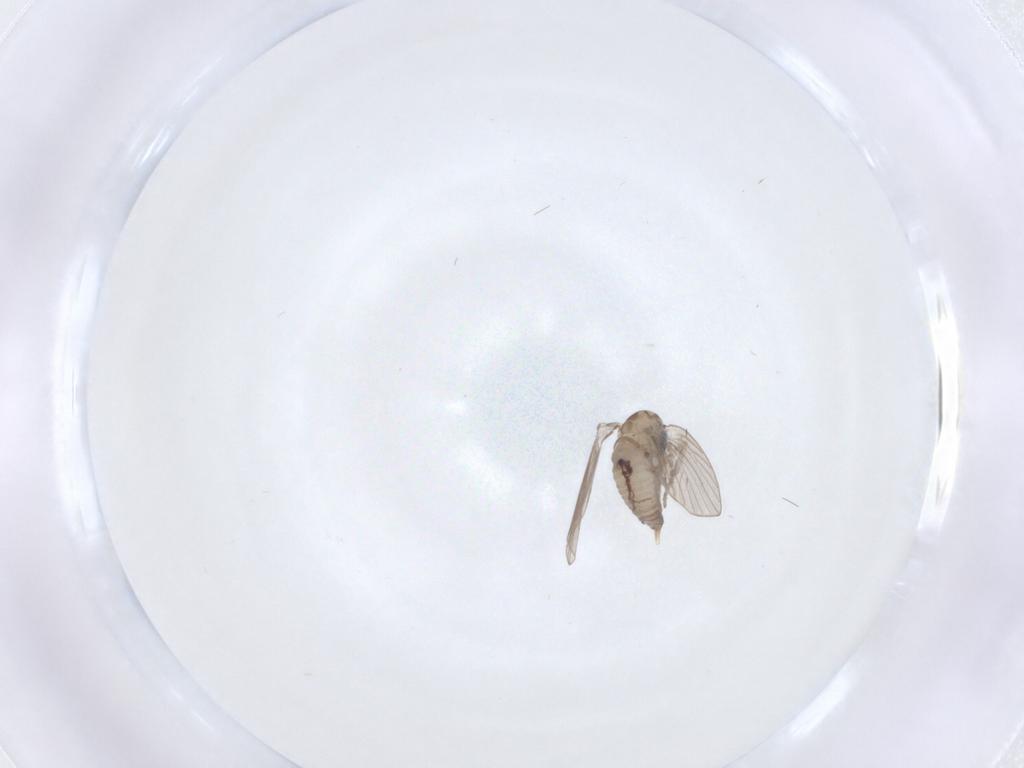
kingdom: Animalia
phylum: Arthropoda
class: Insecta
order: Diptera
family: Psychodidae
